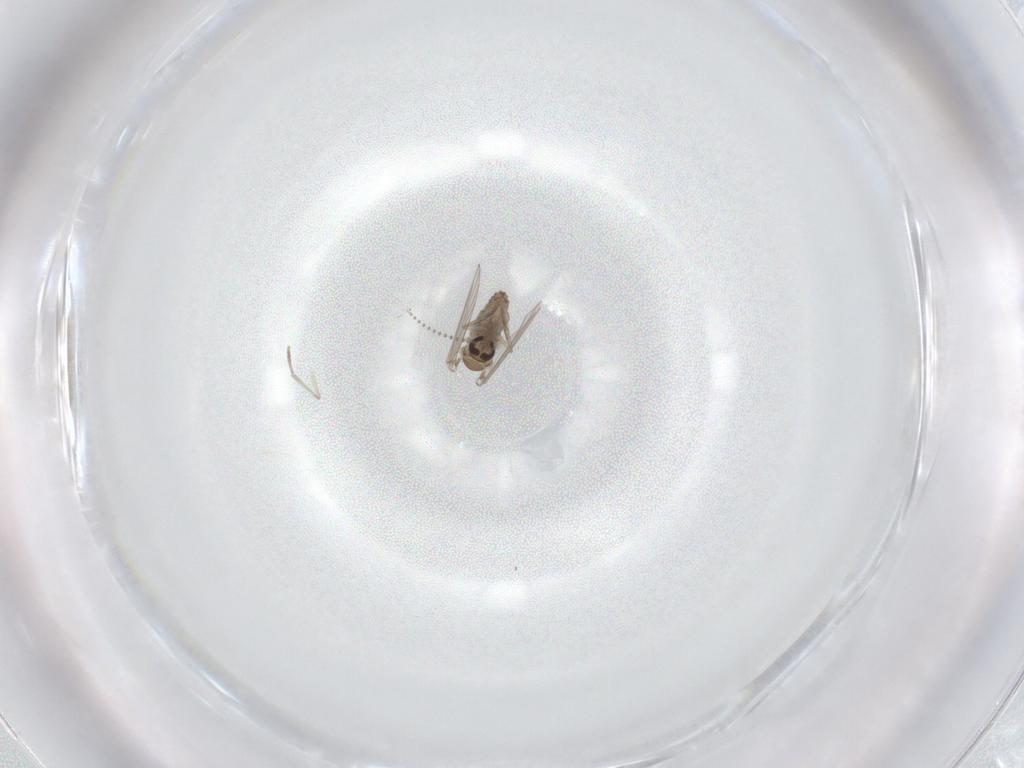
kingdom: Animalia
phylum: Arthropoda
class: Insecta
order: Diptera
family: Psychodidae
